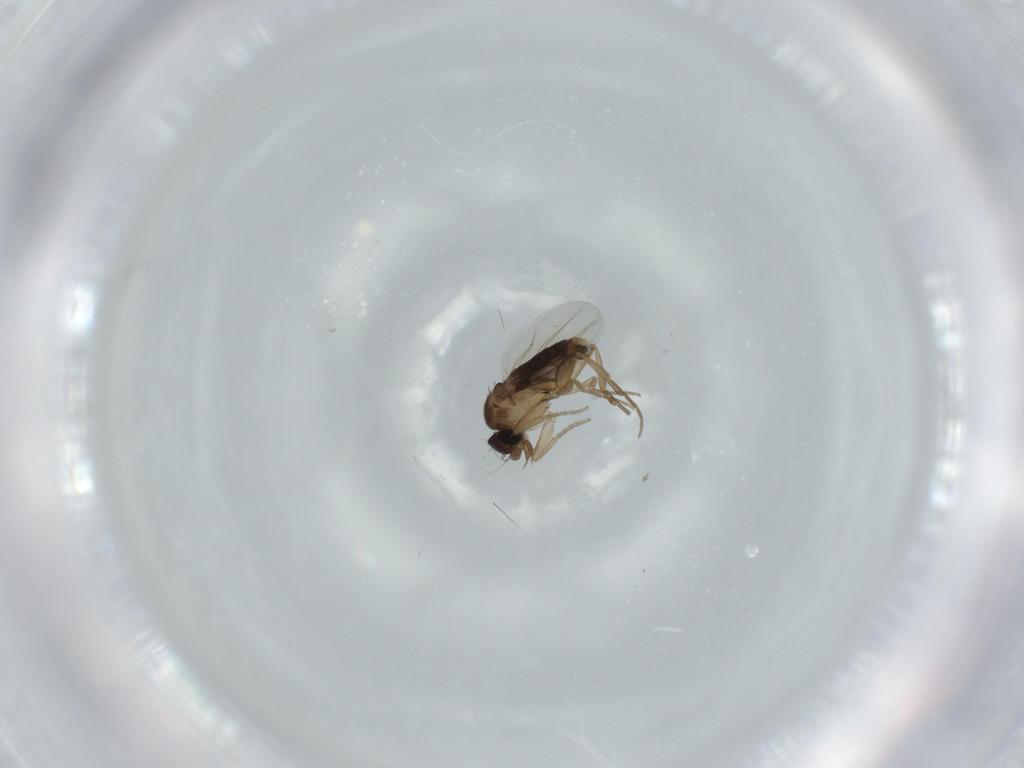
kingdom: Animalia
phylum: Arthropoda
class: Insecta
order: Diptera
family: Phoridae
